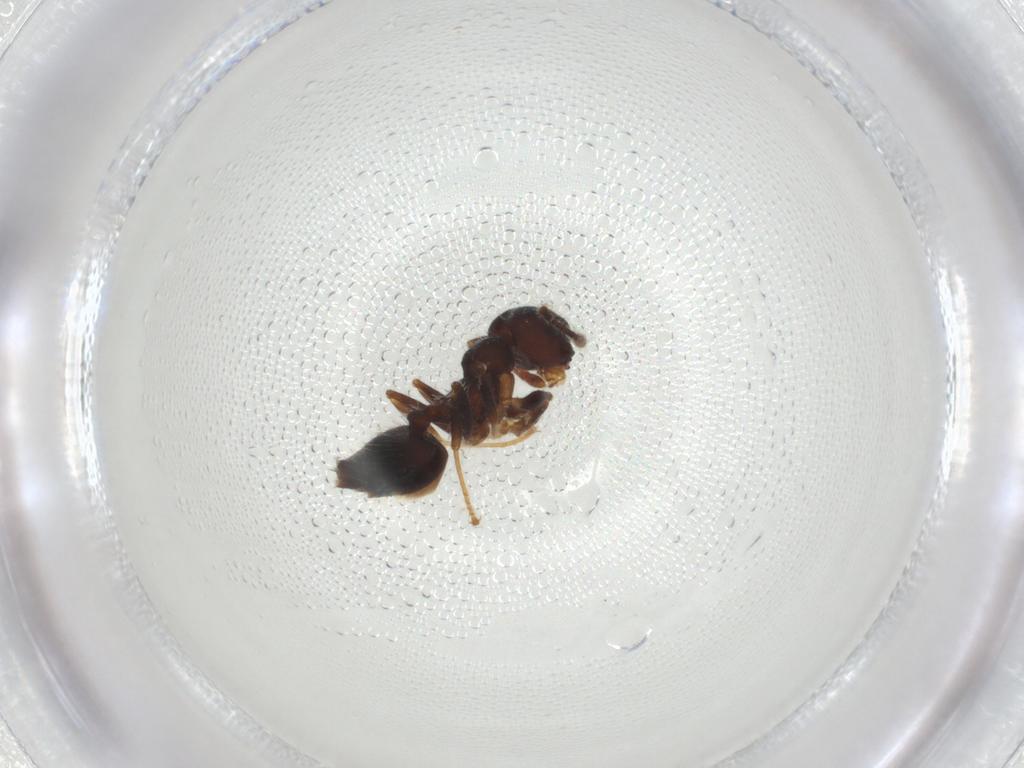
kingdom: Animalia
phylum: Arthropoda
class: Insecta
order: Hymenoptera
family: Formicidae
